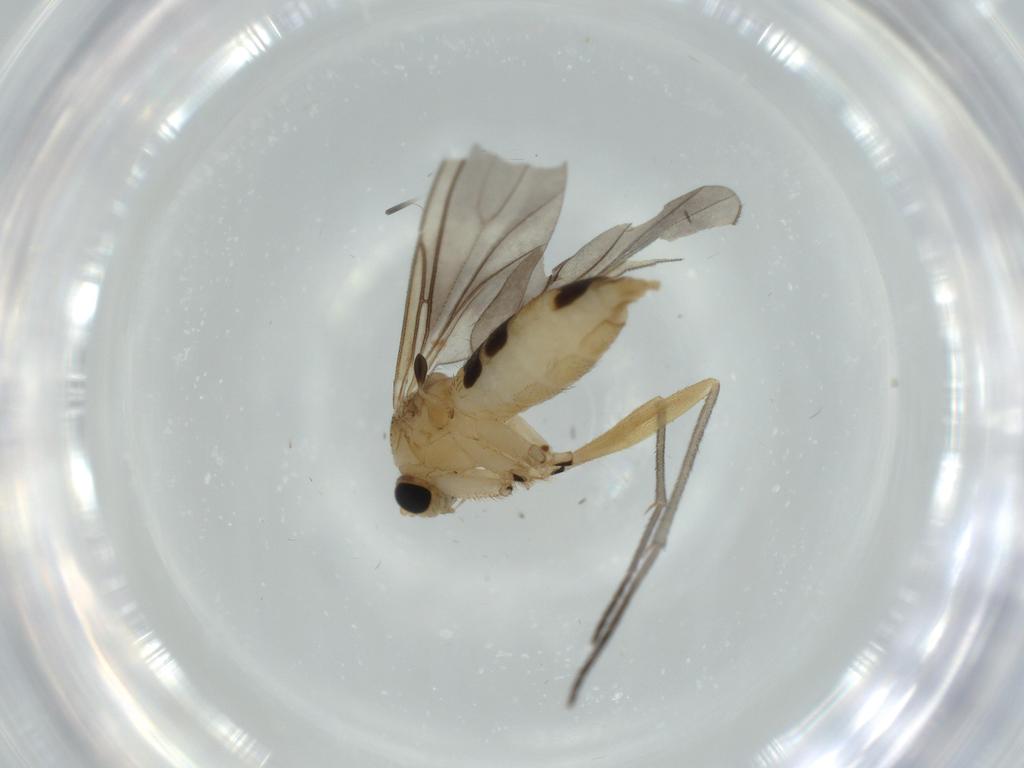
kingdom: Animalia
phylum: Arthropoda
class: Insecta
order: Diptera
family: Sciaridae
